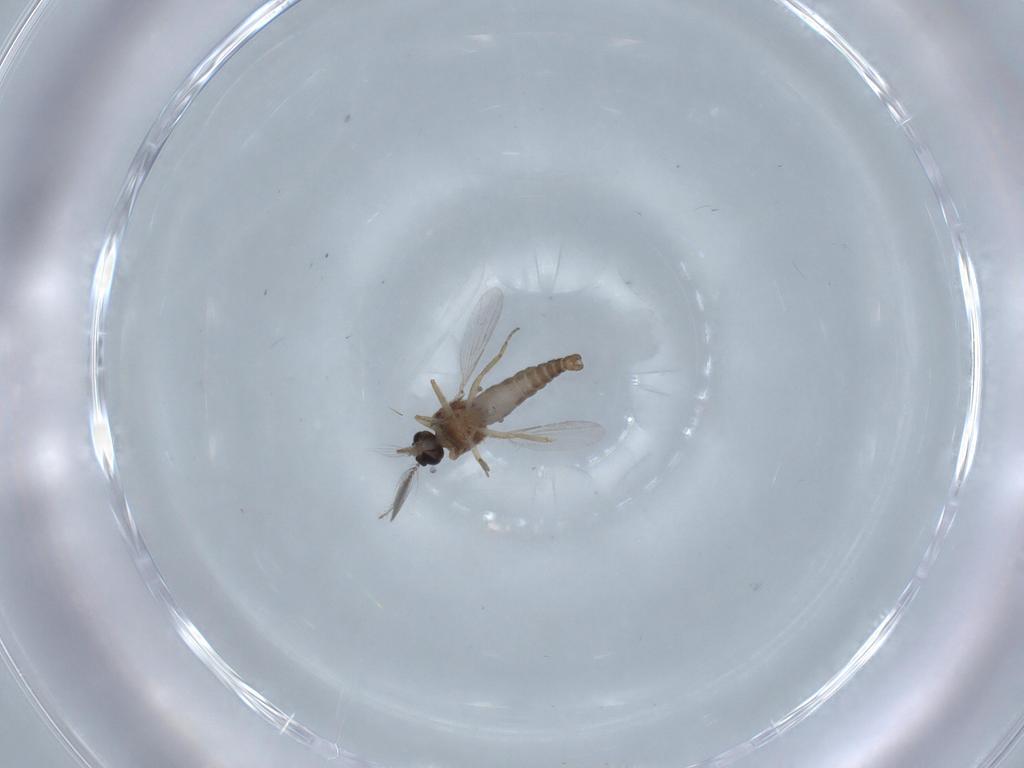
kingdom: Animalia
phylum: Arthropoda
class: Insecta
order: Diptera
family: Ceratopogonidae
